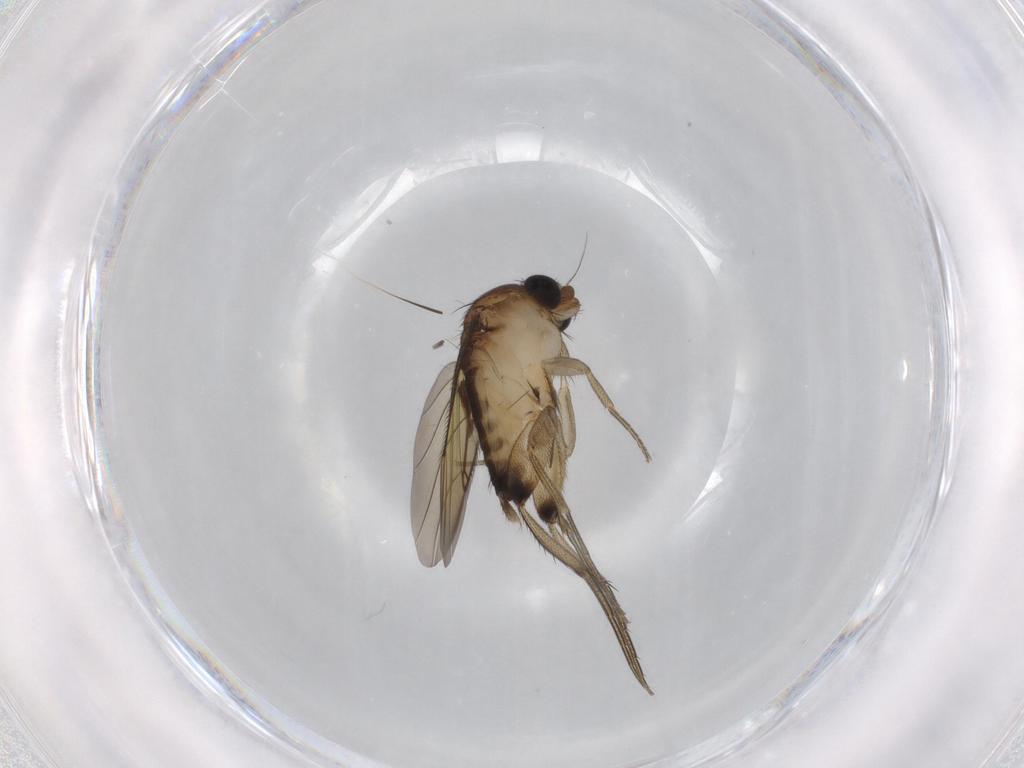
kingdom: Animalia
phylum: Arthropoda
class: Insecta
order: Diptera
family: Phoridae
